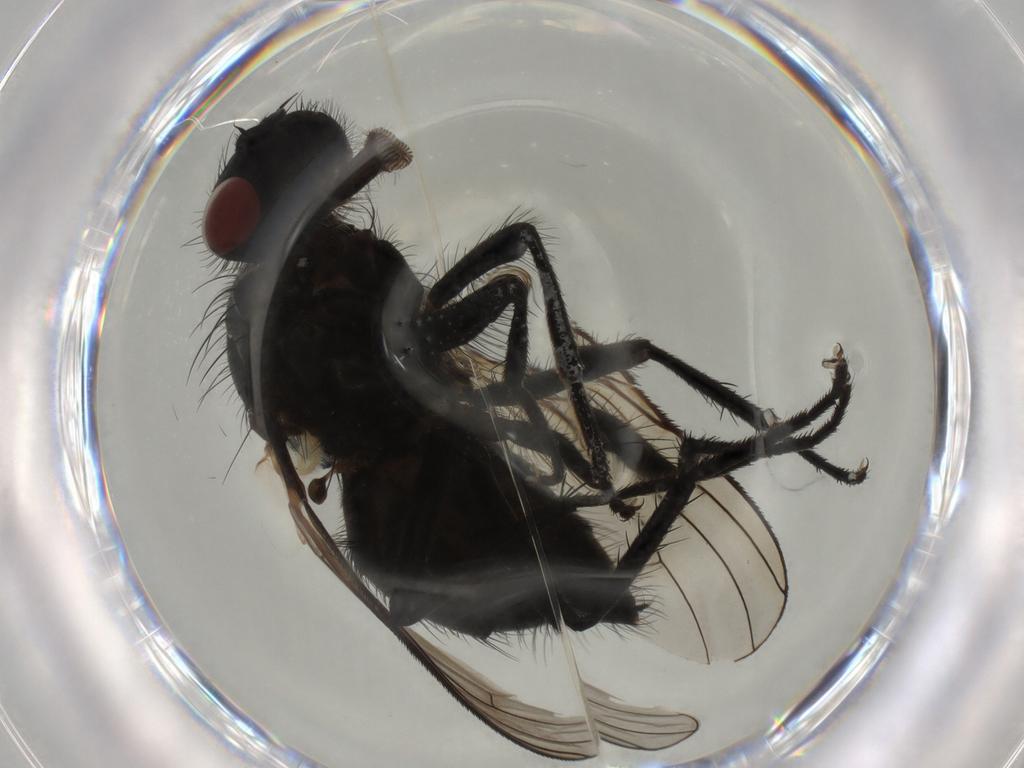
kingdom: Animalia
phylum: Arthropoda
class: Insecta
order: Diptera
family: Muscidae
